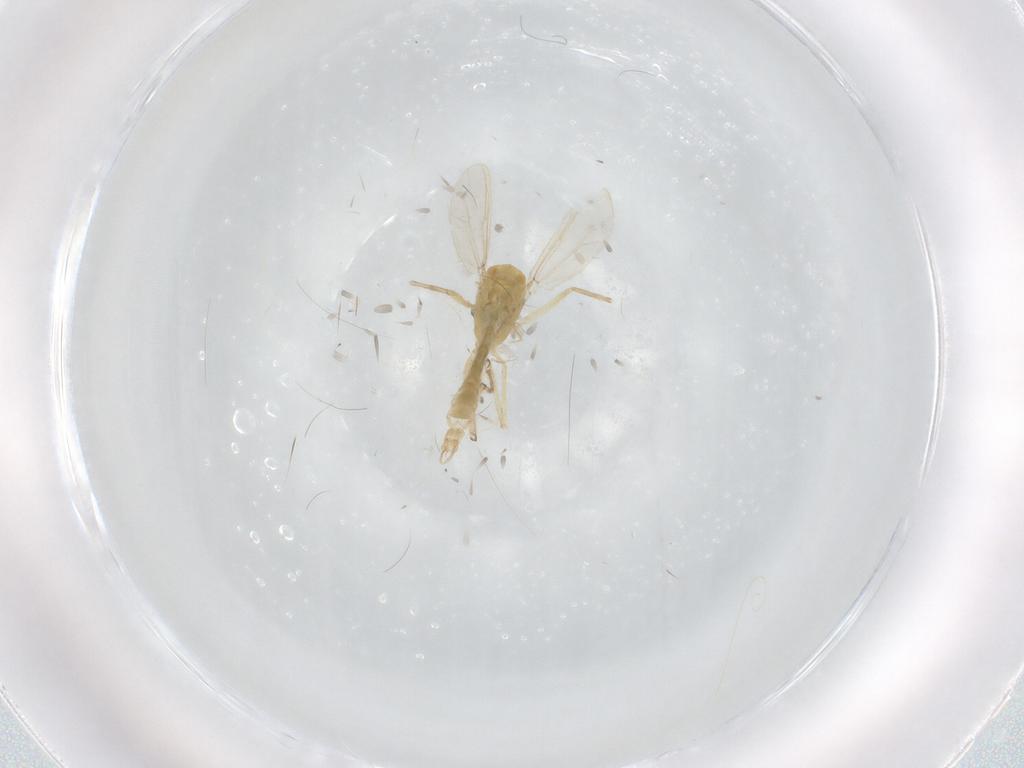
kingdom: Animalia
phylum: Arthropoda
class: Insecta
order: Diptera
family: Chironomidae
